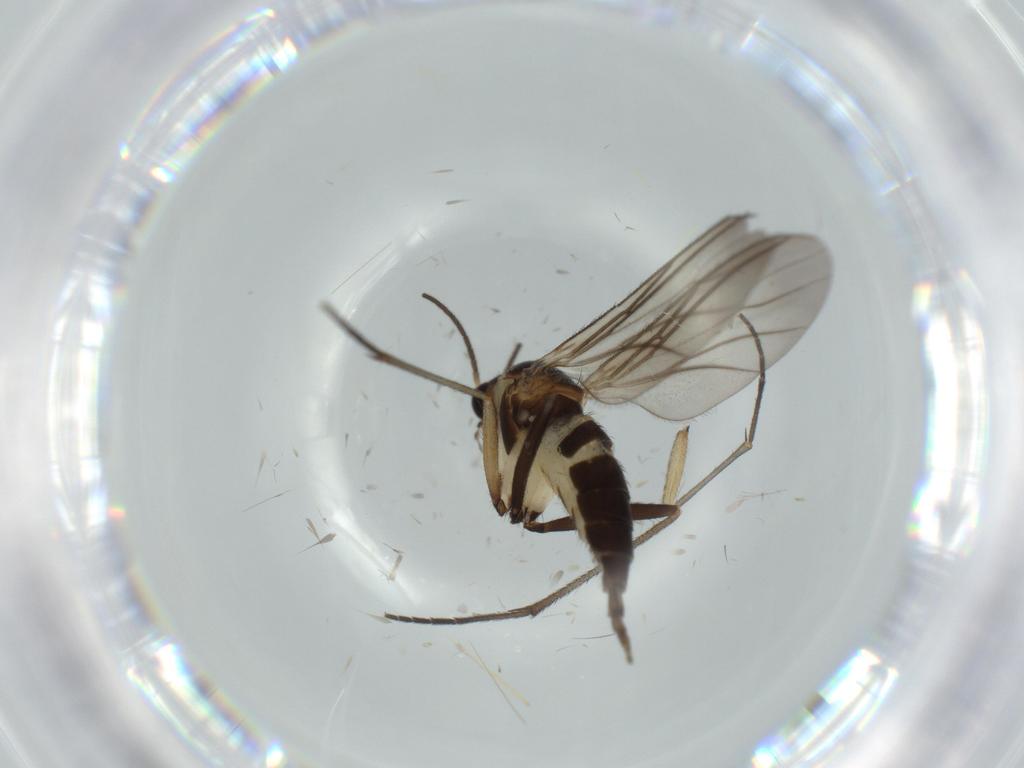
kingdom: Animalia
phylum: Arthropoda
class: Insecta
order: Diptera
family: Sciaridae
